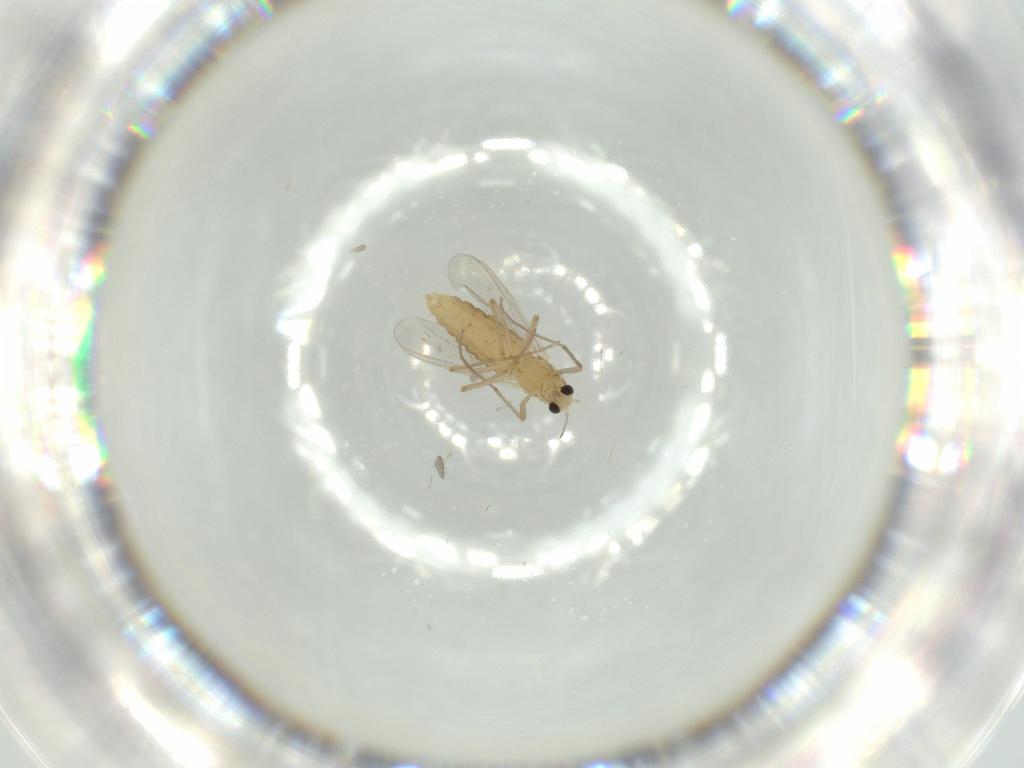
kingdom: Animalia
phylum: Arthropoda
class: Insecta
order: Diptera
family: Chironomidae
